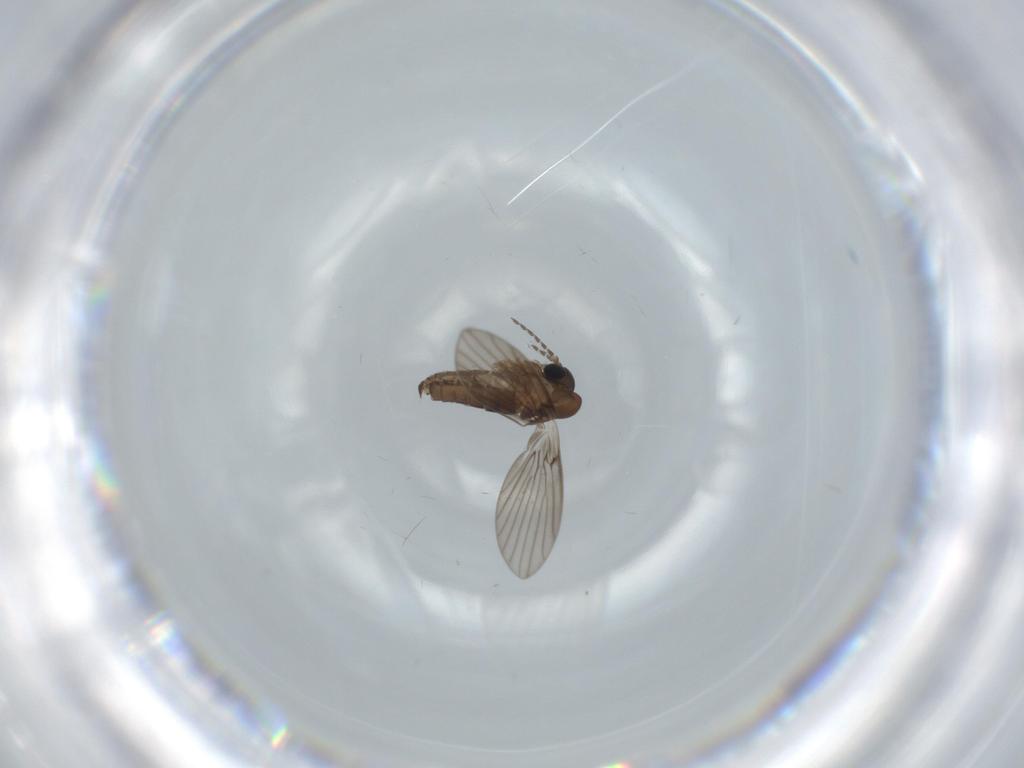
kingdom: Animalia
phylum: Arthropoda
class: Insecta
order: Diptera
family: Psychodidae
